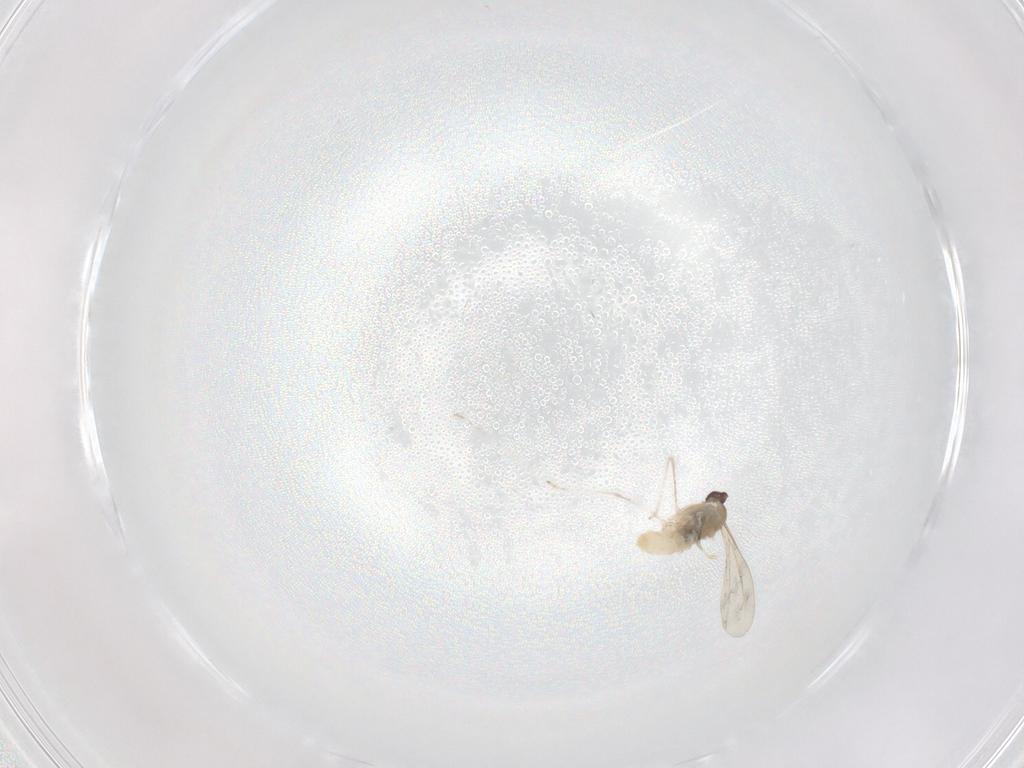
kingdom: Animalia
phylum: Arthropoda
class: Insecta
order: Diptera
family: Cecidomyiidae
